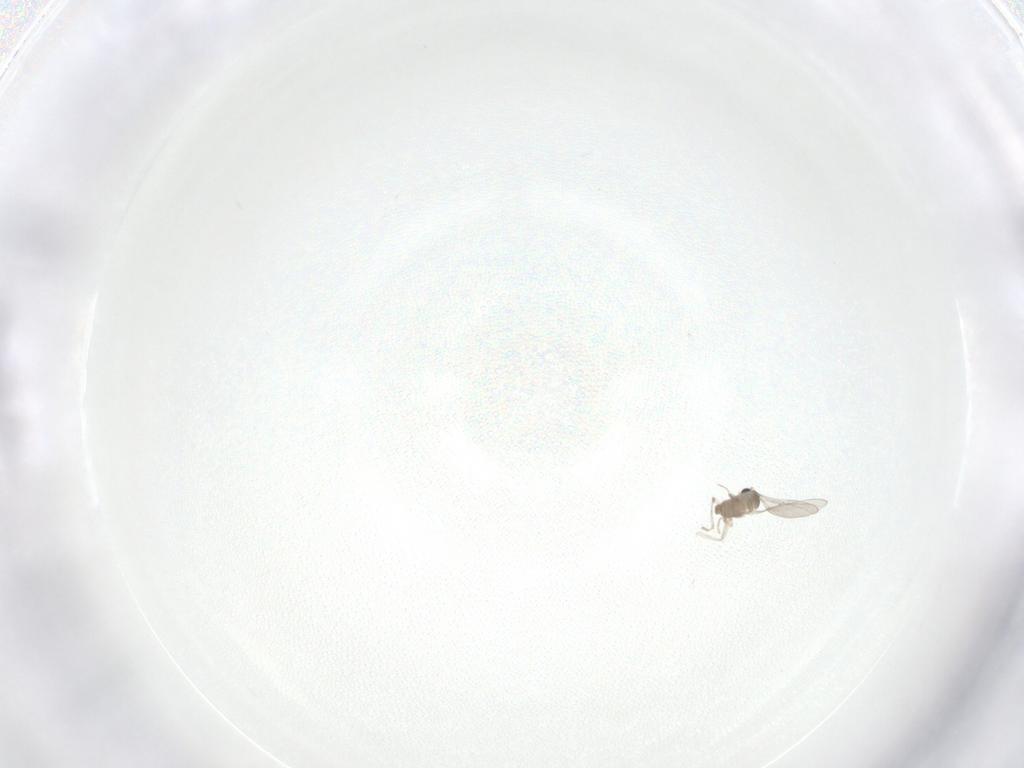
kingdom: Animalia
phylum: Arthropoda
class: Insecta
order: Diptera
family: Cecidomyiidae
